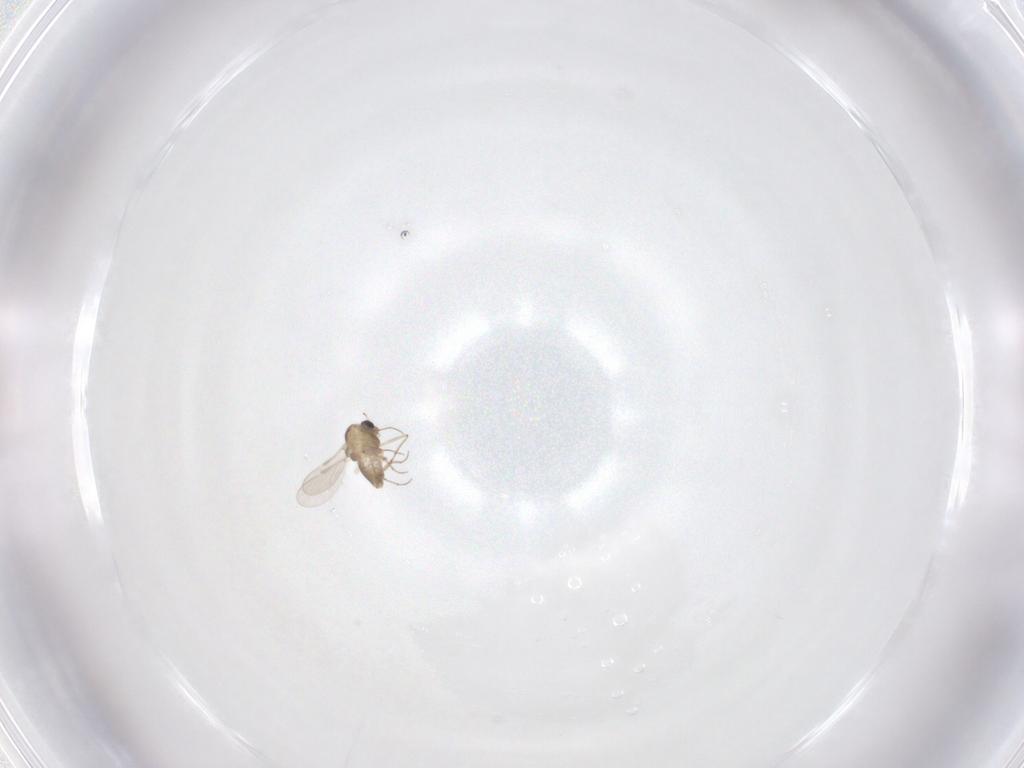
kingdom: Animalia
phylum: Arthropoda
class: Insecta
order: Diptera
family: Chironomidae
